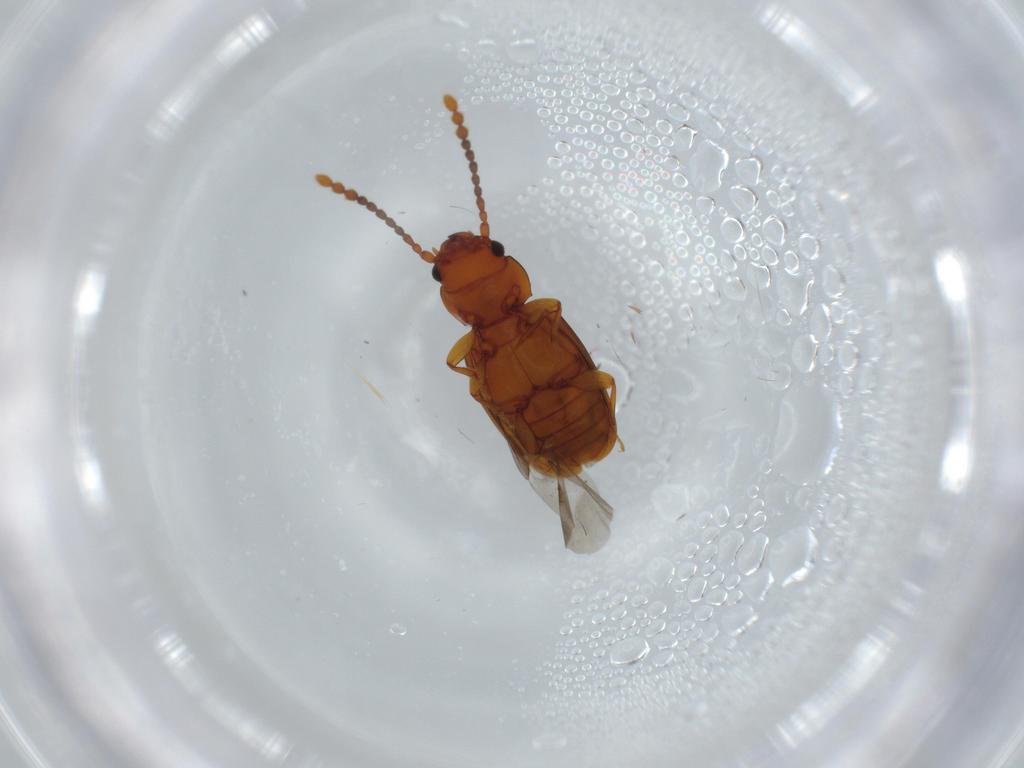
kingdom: Animalia
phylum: Arthropoda
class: Insecta
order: Coleoptera
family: Laemophloeidae
